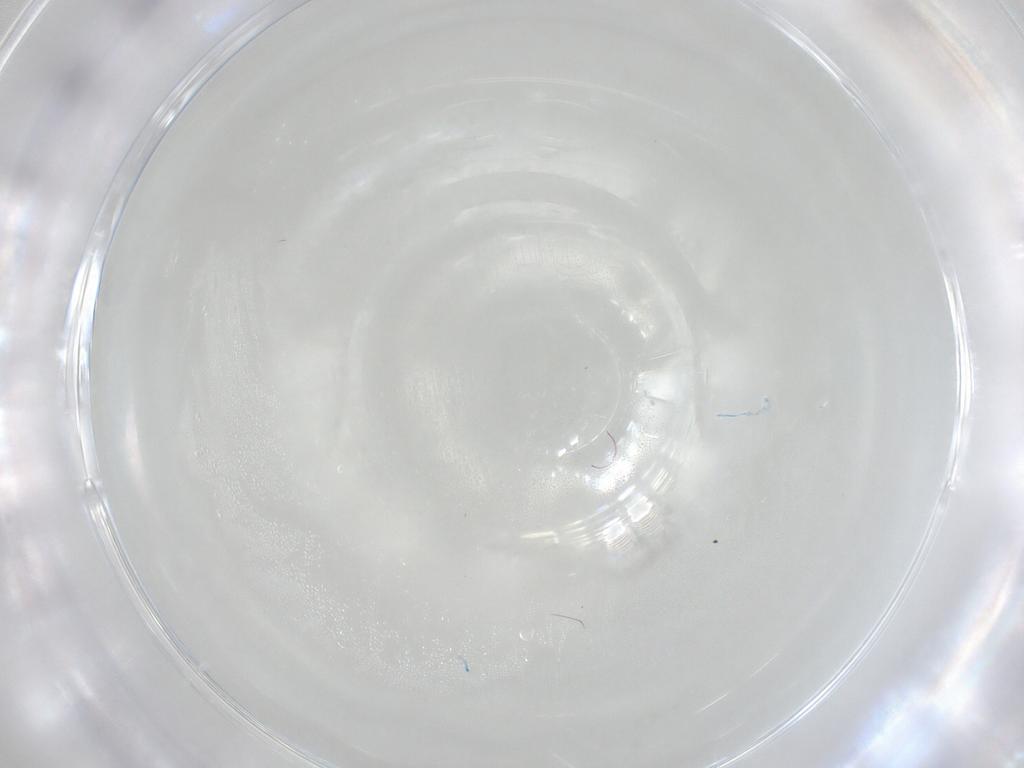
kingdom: Animalia
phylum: Arthropoda
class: Insecta
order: Diptera
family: Cecidomyiidae
